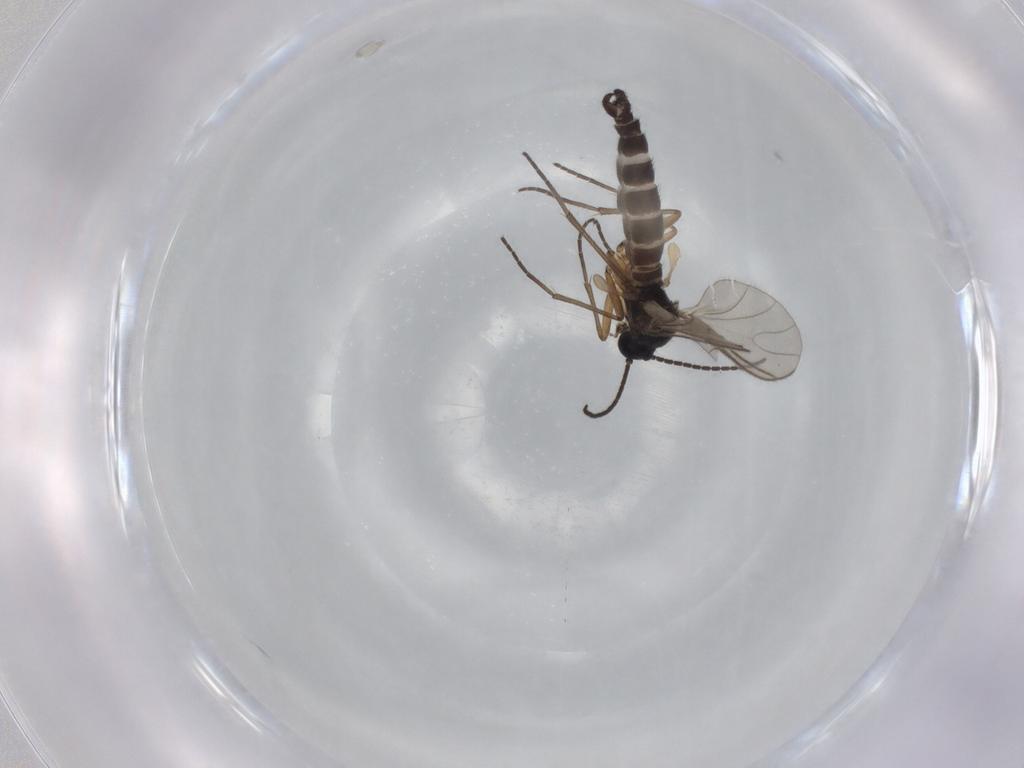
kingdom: Animalia
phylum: Arthropoda
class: Insecta
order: Diptera
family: Sciaridae
